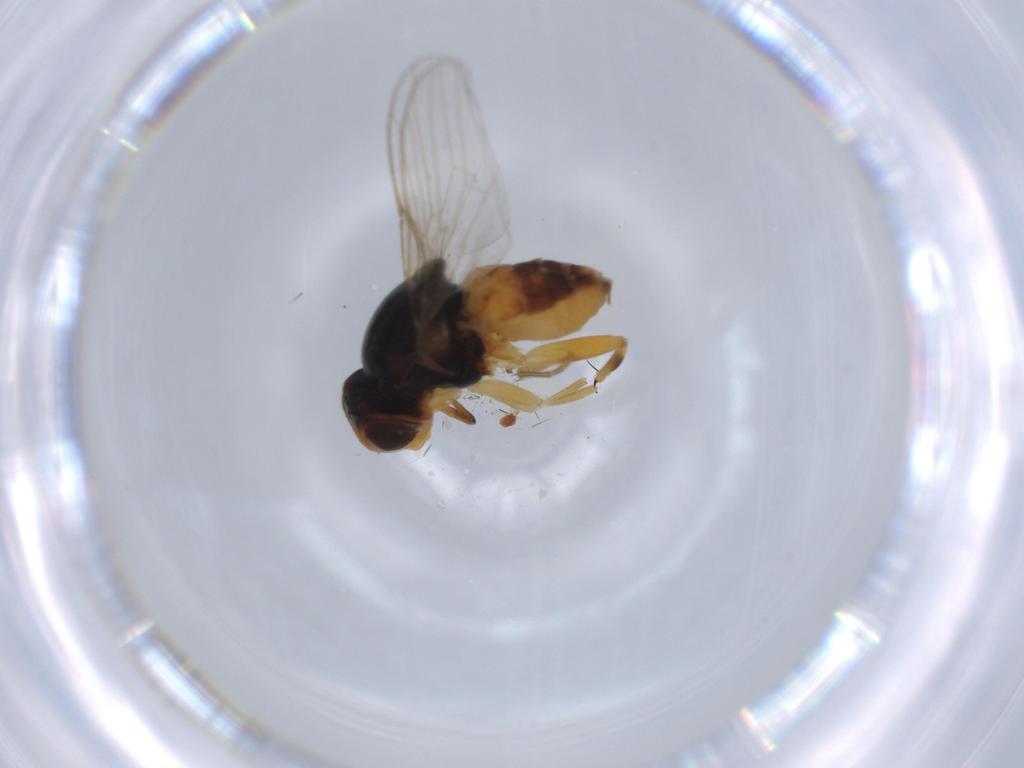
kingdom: Animalia
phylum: Arthropoda
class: Insecta
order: Diptera
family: Chloropidae
